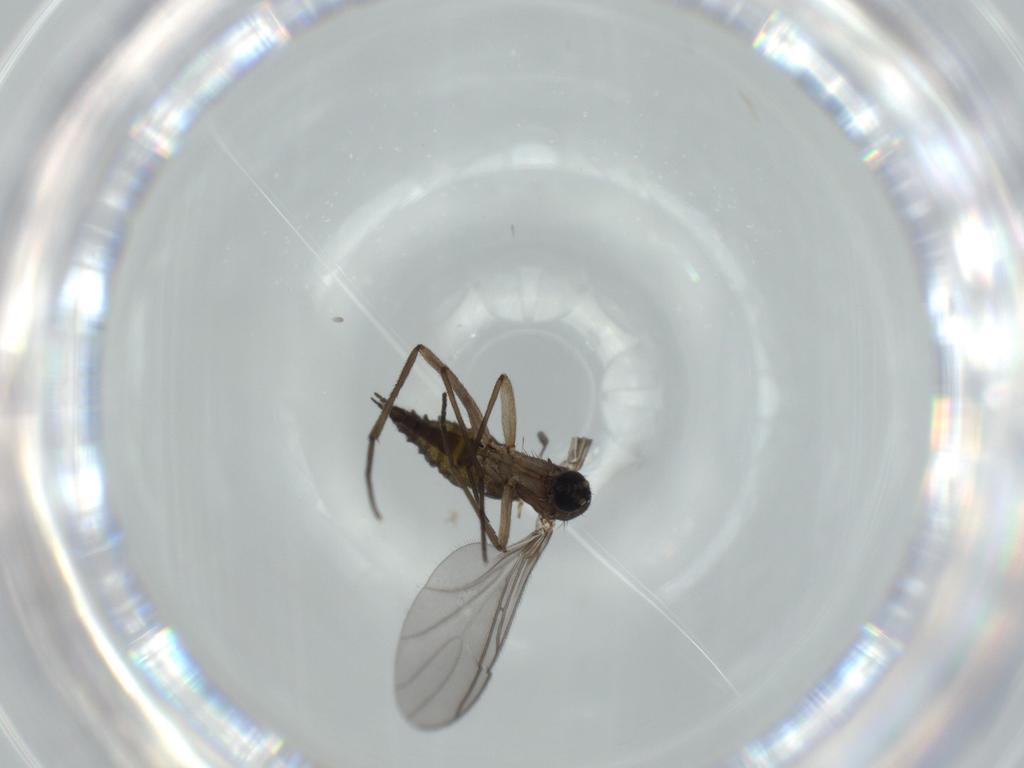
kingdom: Animalia
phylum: Arthropoda
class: Insecta
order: Diptera
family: Sciaridae
